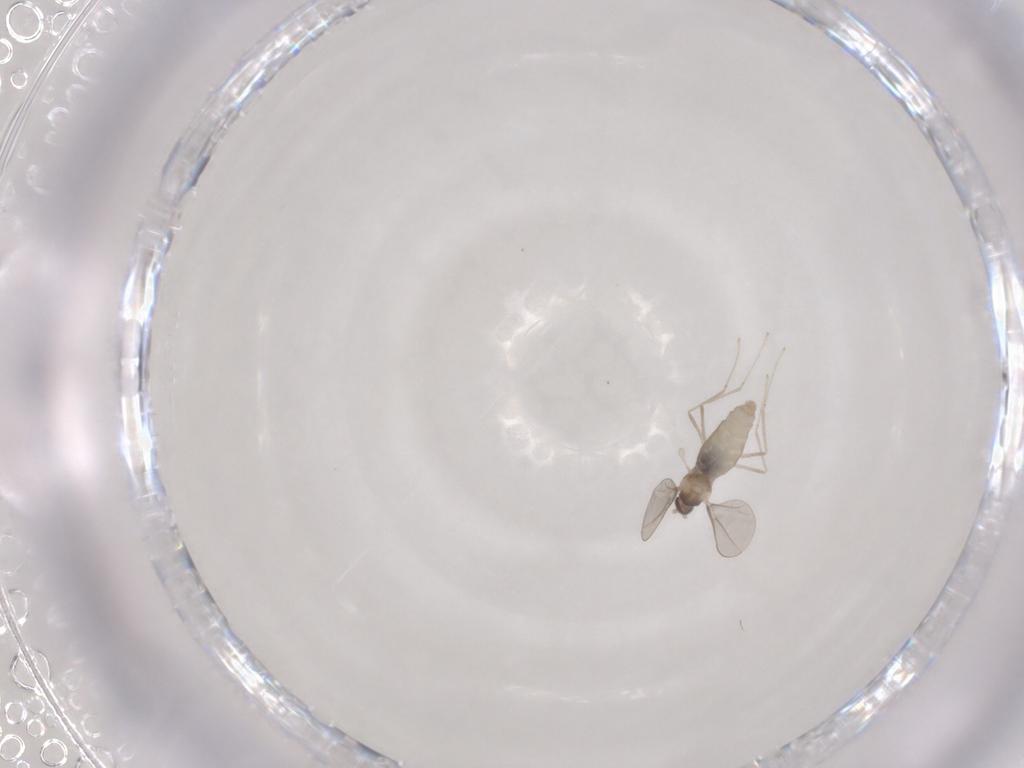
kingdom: Animalia
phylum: Arthropoda
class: Insecta
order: Diptera
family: Cecidomyiidae
